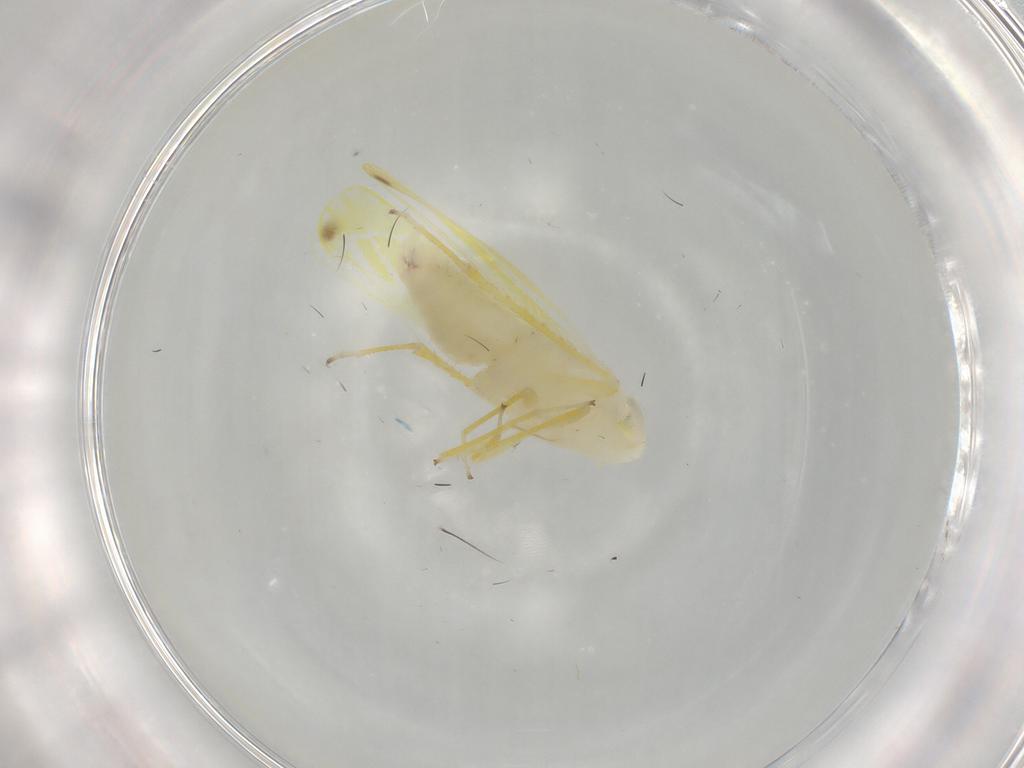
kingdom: Animalia
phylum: Arthropoda
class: Insecta
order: Hemiptera
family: Cicadellidae
